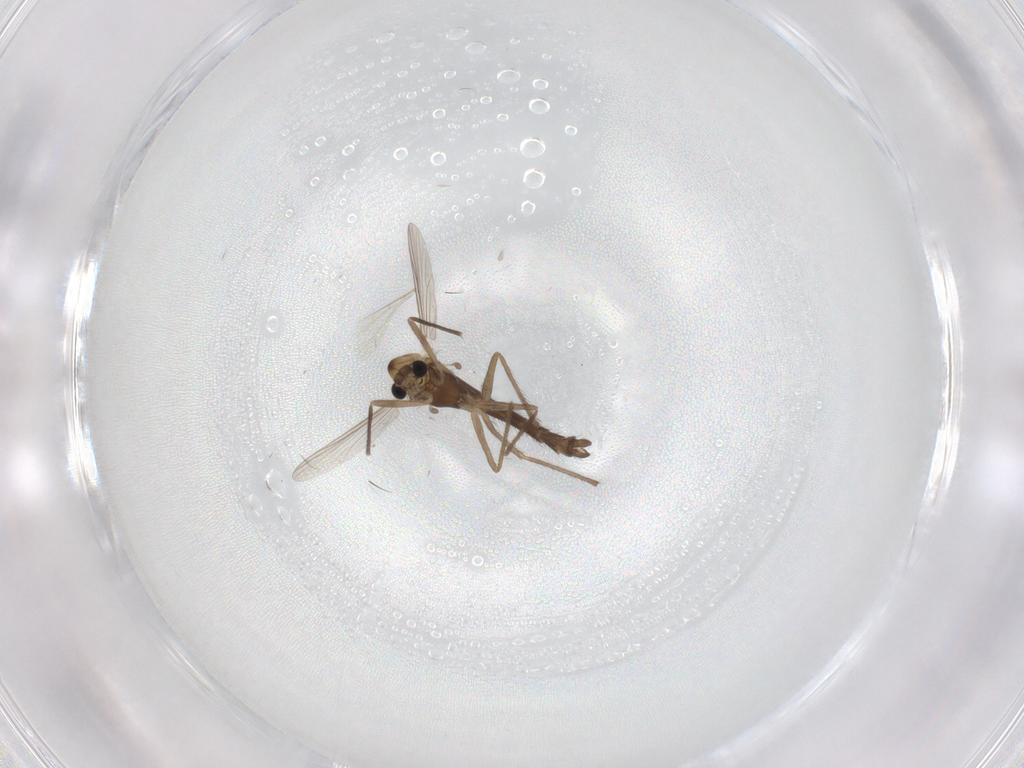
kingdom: Animalia
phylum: Arthropoda
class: Insecta
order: Diptera
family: Chironomidae
